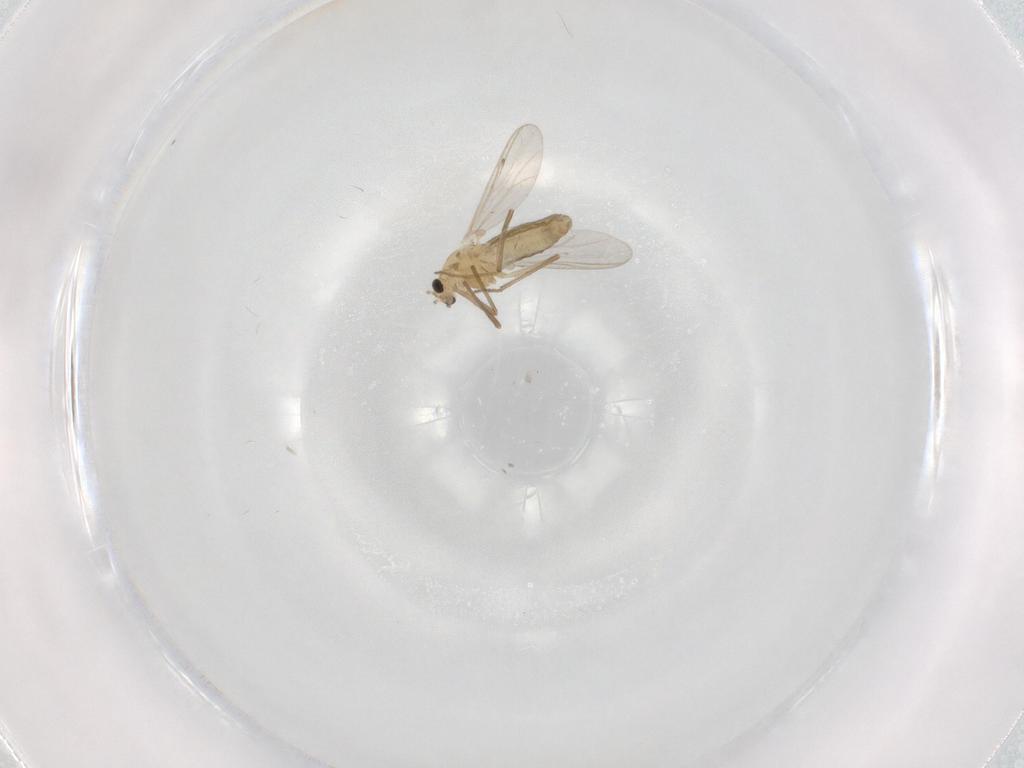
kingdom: Animalia
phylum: Arthropoda
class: Insecta
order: Diptera
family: Chironomidae
